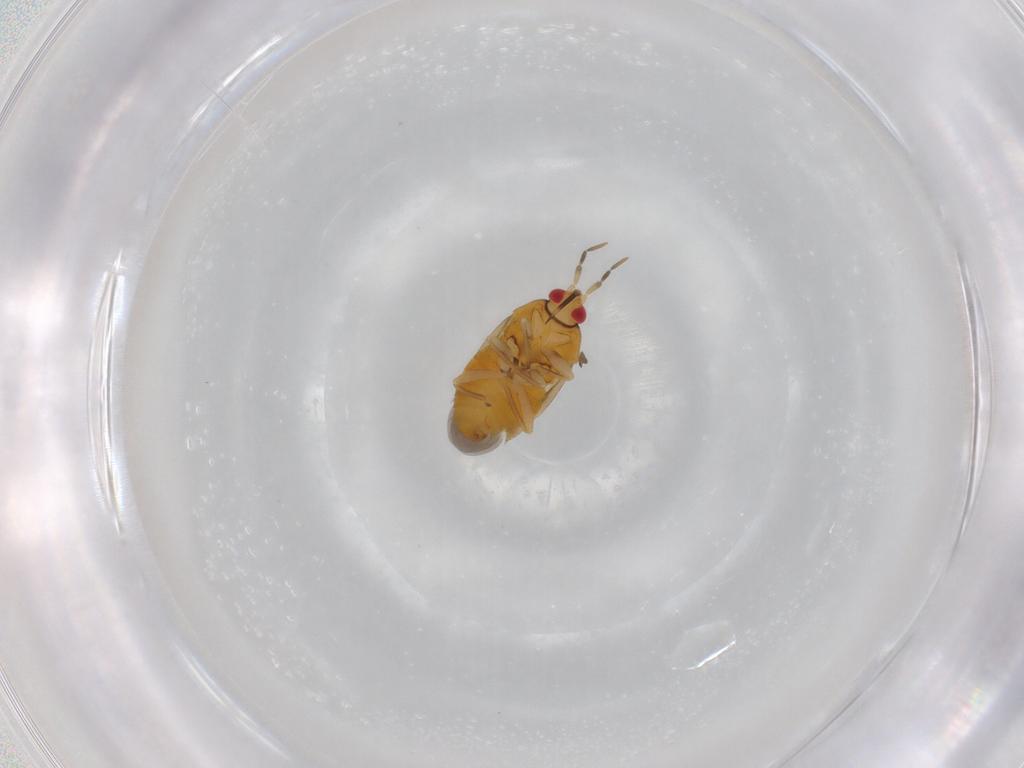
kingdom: Animalia
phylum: Arthropoda
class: Insecta
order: Hemiptera
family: Anthocoridae
